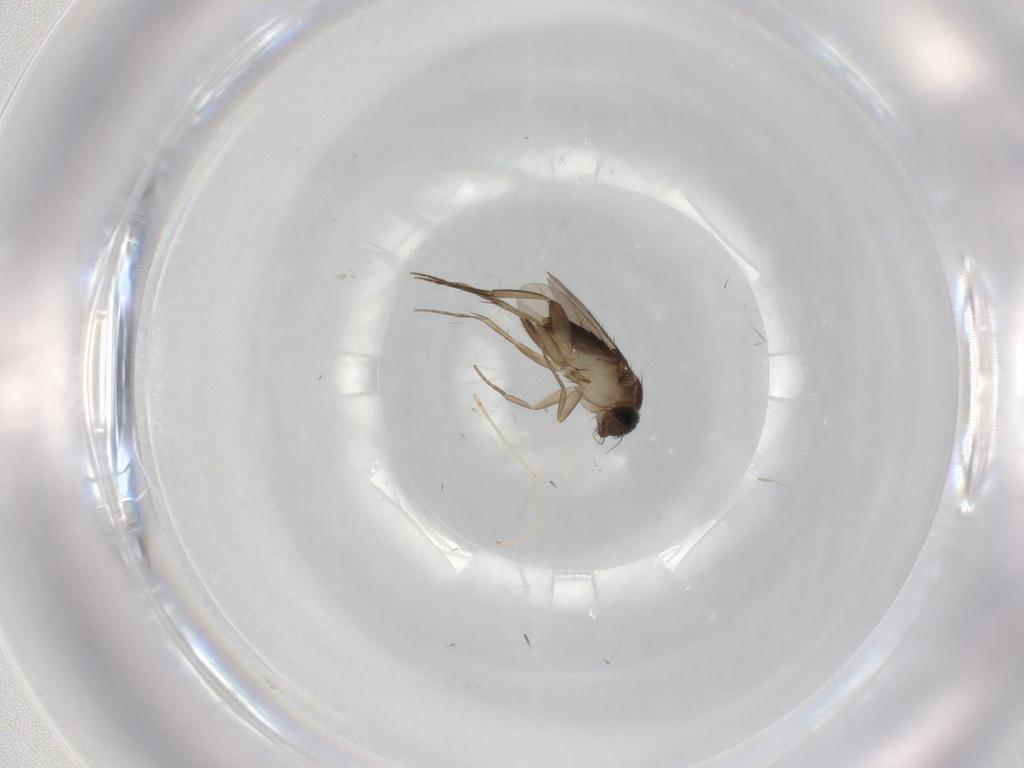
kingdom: Animalia
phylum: Arthropoda
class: Insecta
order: Diptera
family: Phoridae
